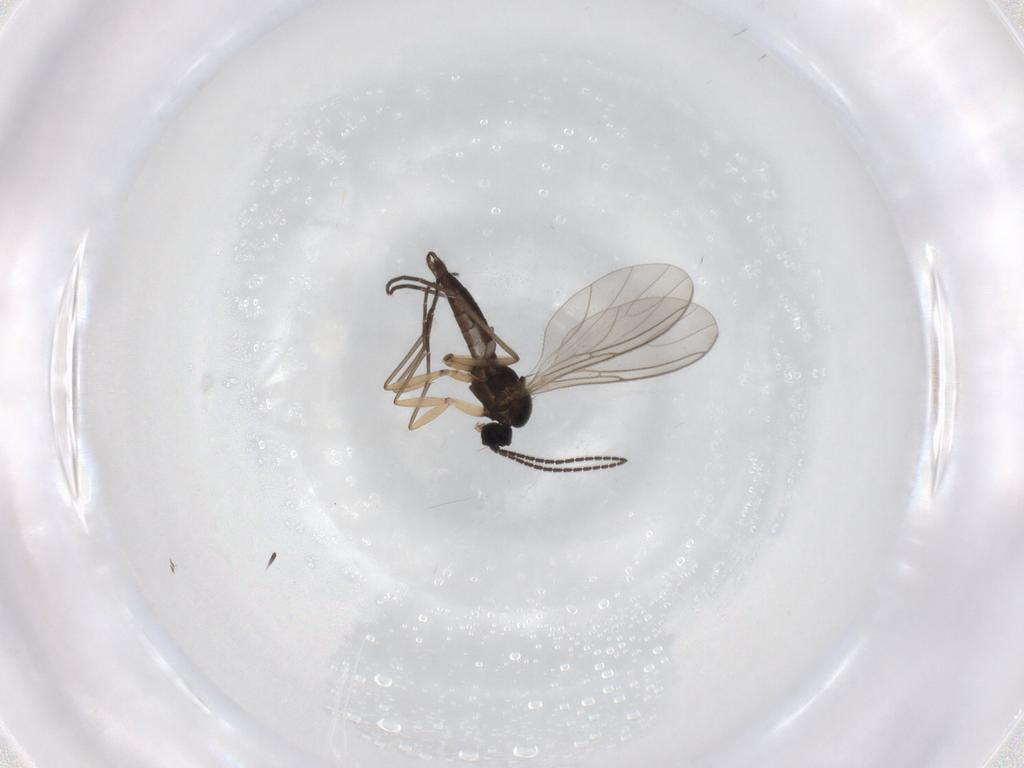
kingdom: Animalia
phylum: Arthropoda
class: Insecta
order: Diptera
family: Sciaridae
